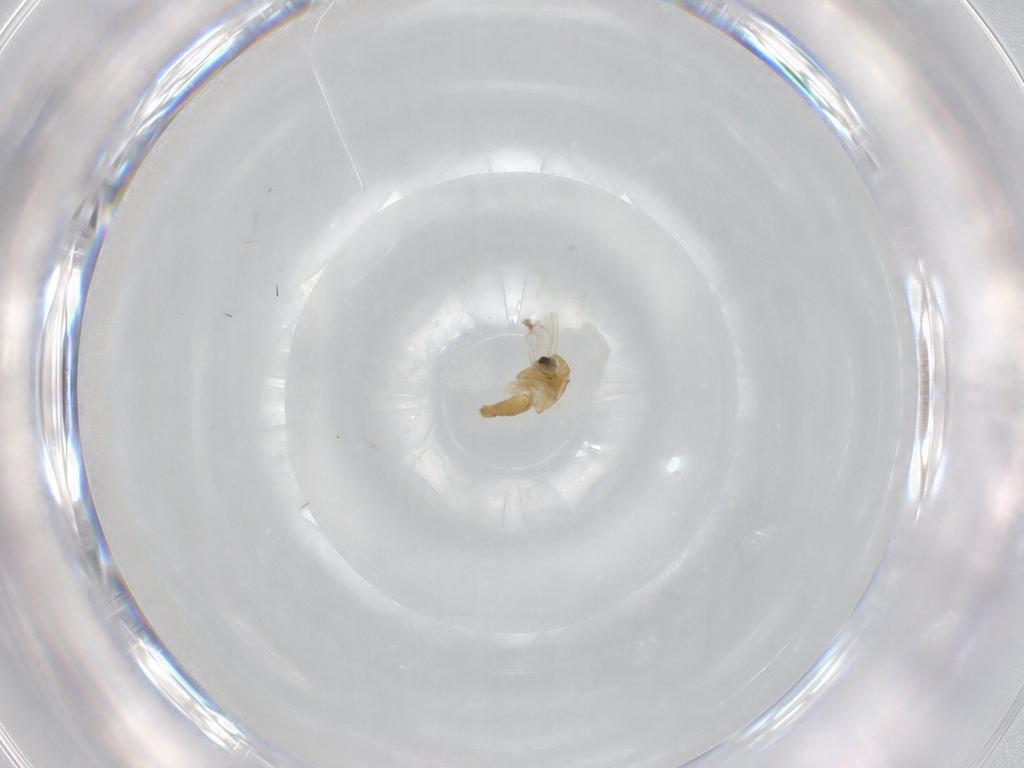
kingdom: Animalia
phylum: Arthropoda
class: Insecta
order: Diptera
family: Chironomidae
